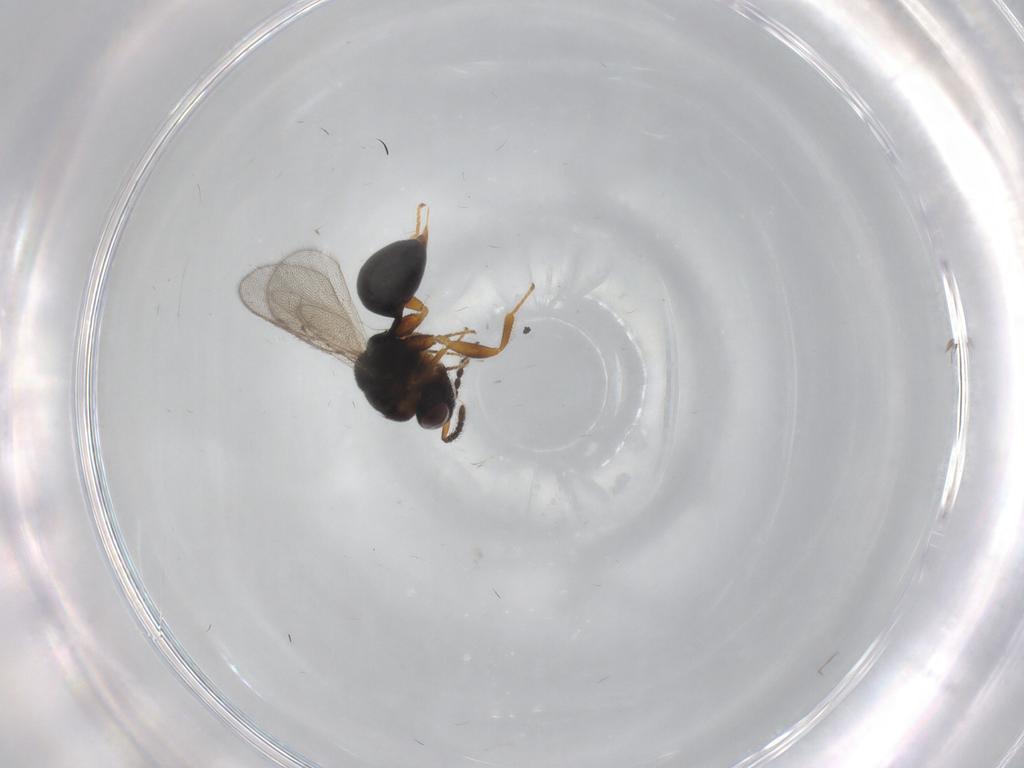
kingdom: Animalia
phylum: Arthropoda
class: Insecta
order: Hymenoptera
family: Eurytomidae
